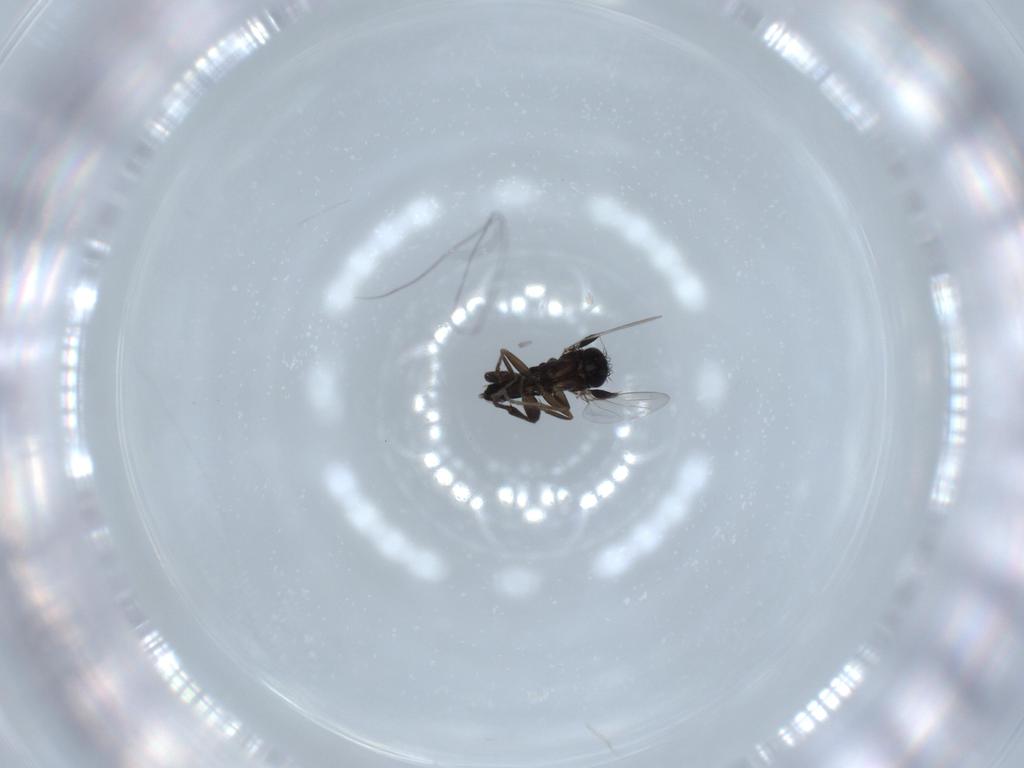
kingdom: Animalia
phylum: Arthropoda
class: Insecta
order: Diptera
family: Phoridae
